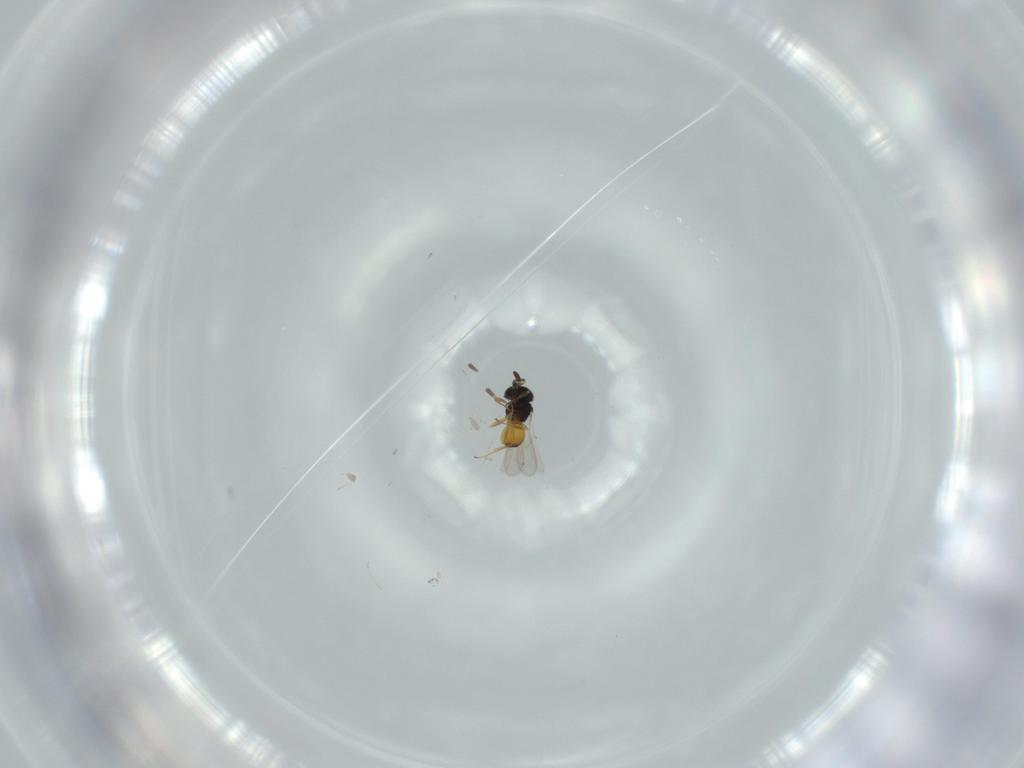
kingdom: Animalia
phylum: Arthropoda
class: Insecta
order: Hymenoptera
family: Scelionidae
